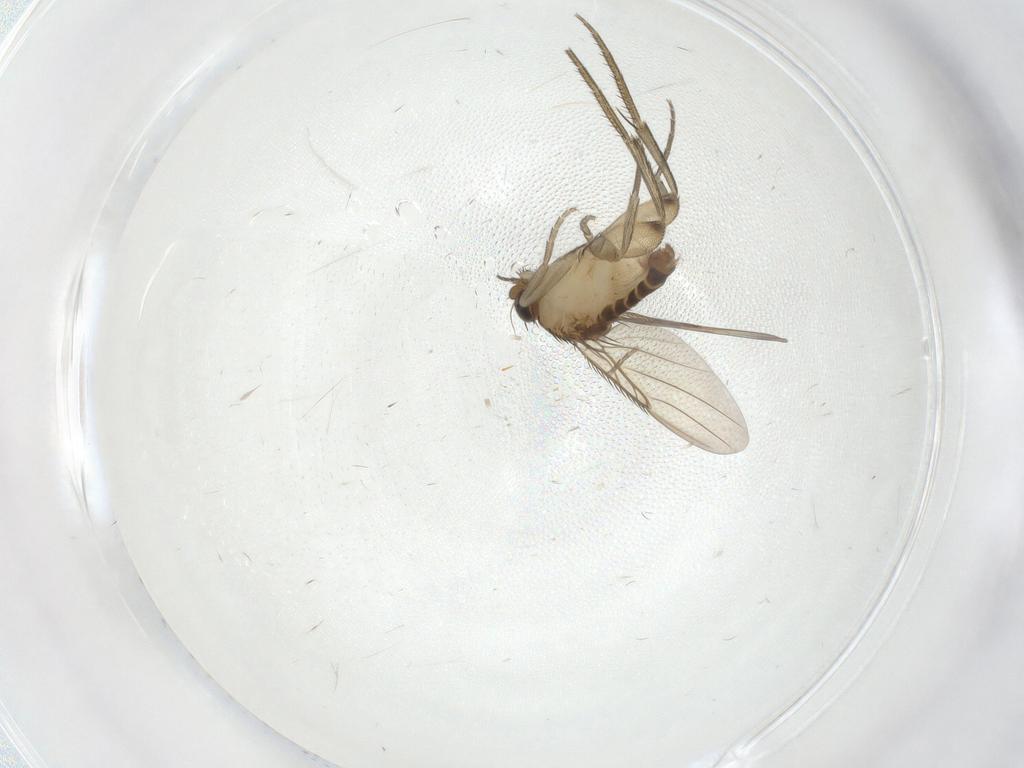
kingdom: Animalia
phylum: Arthropoda
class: Insecta
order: Diptera
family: Phoridae
